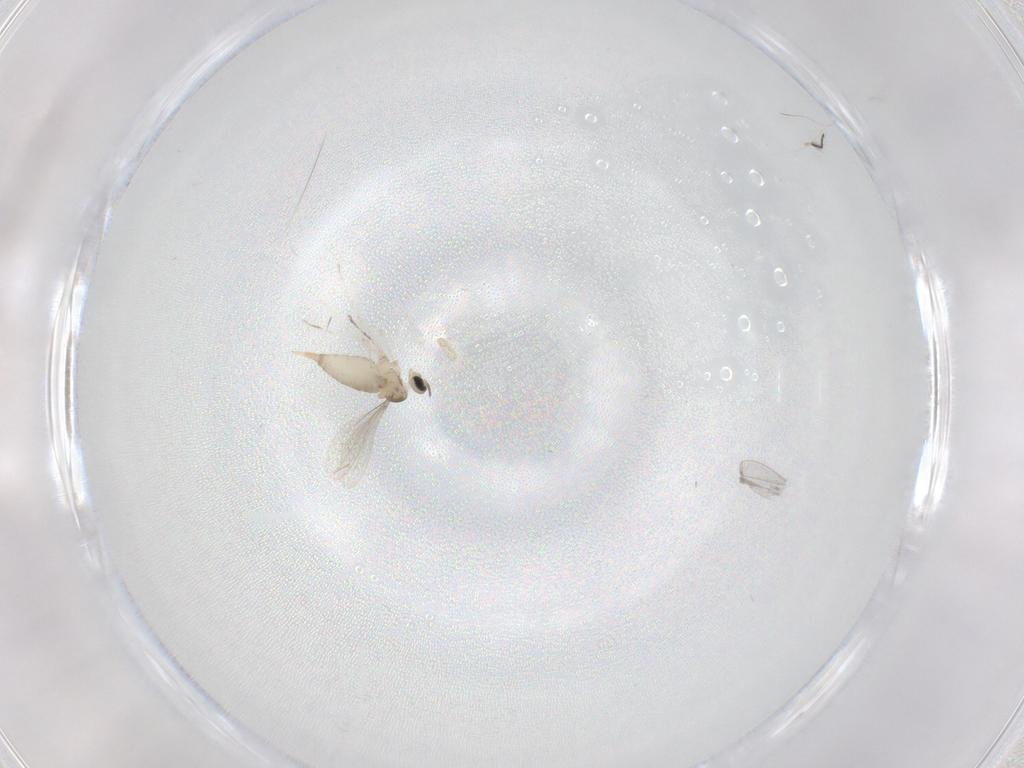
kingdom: Animalia
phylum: Arthropoda
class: Insecta
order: Diptera
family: Ceratopogonidae
